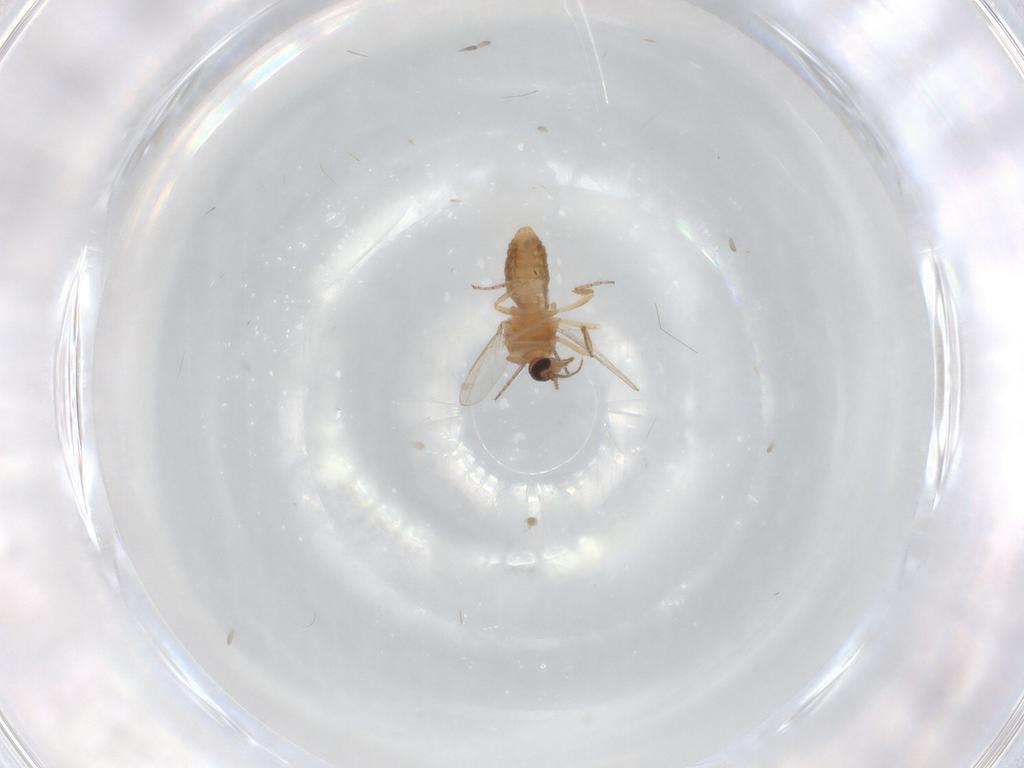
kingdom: Animalia
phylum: Arthropoda
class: Insecta
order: Diptera
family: Ceratopogonidae
